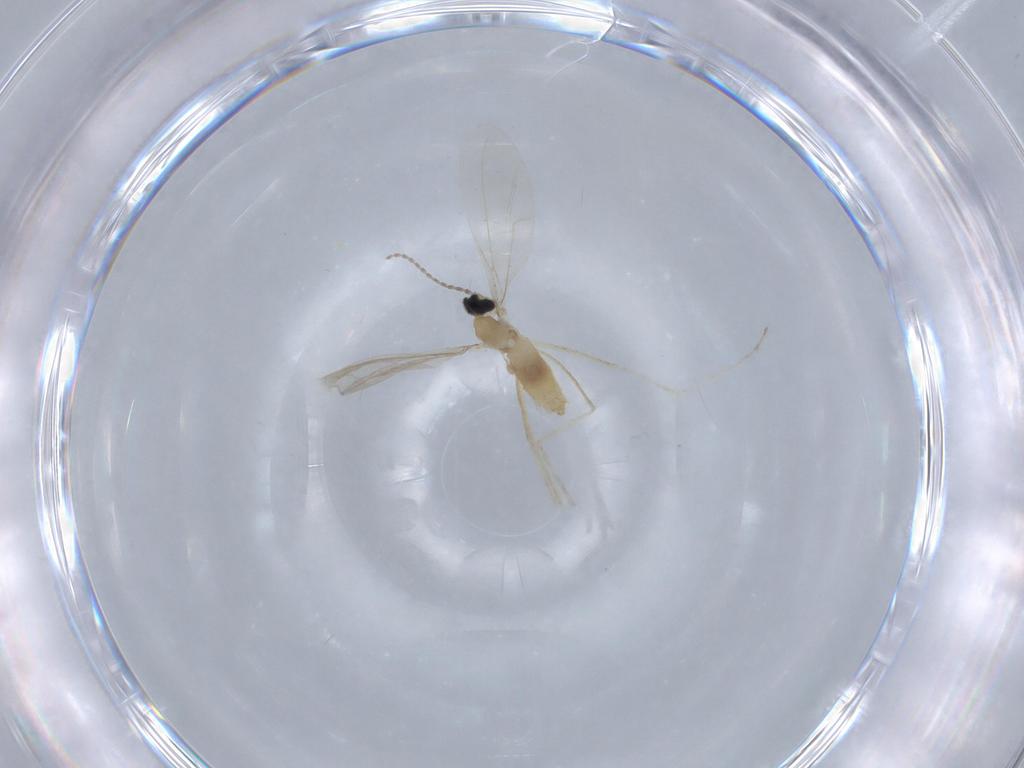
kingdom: Animalia
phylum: Arthropoda
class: Insecta
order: Diptera
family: Cecidomyiidae
